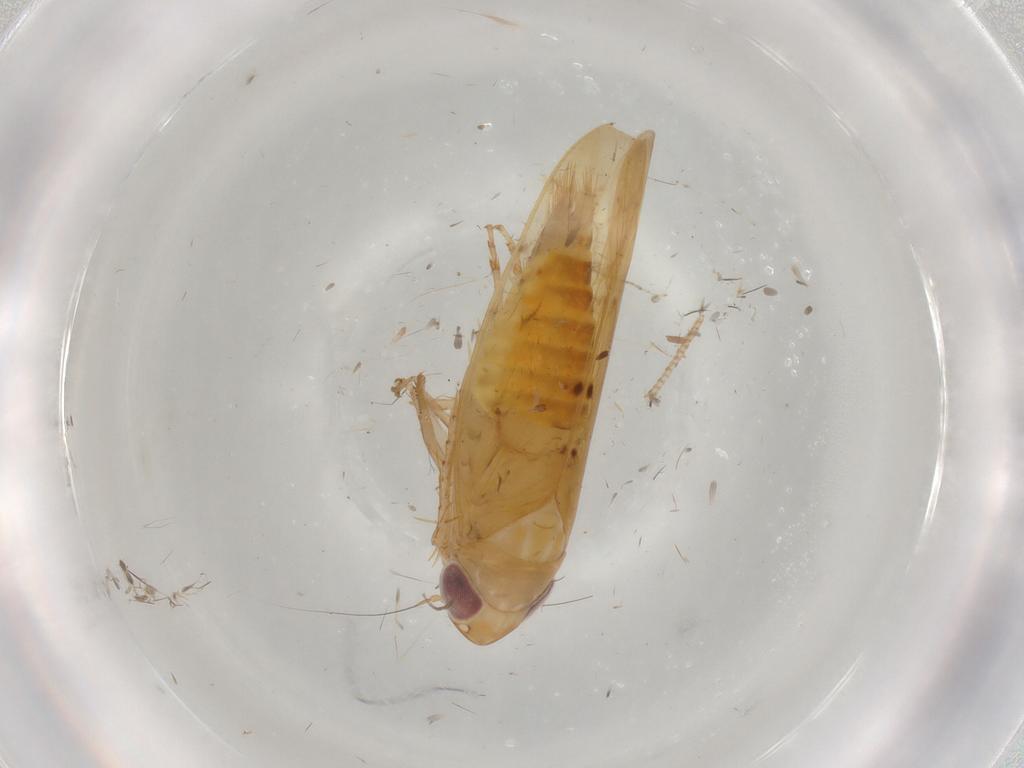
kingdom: Animalia
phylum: Arthropoda
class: Insecta
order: Hemiptera
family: Cicadellidae
